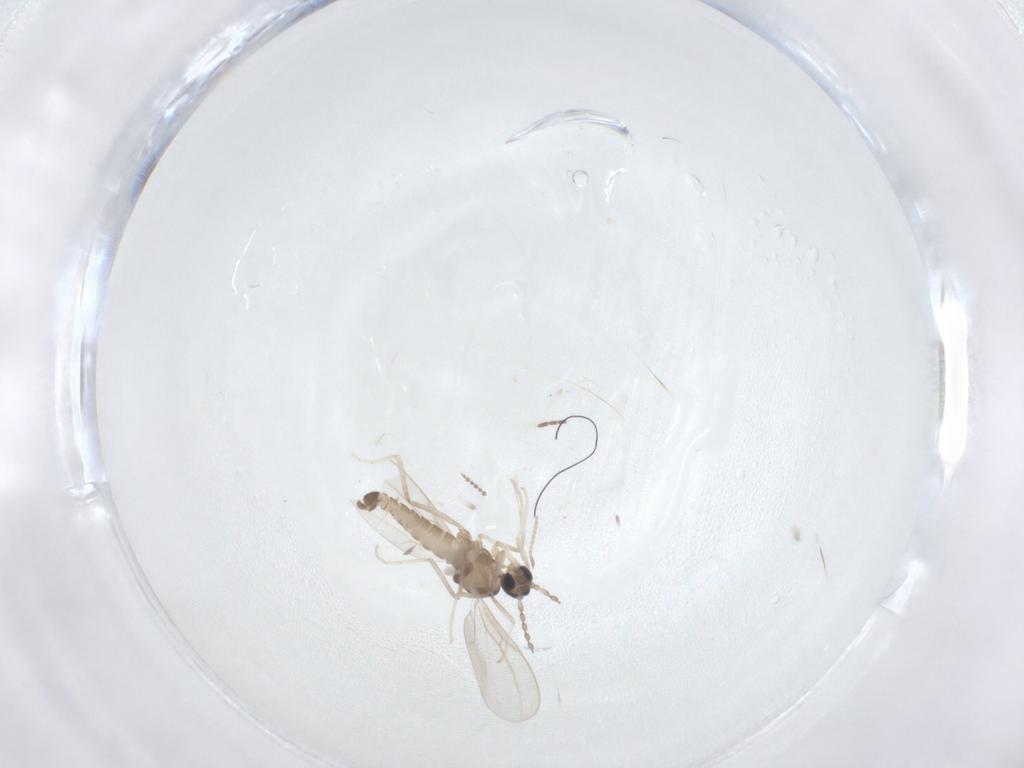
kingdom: Animalia
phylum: Arthropoda
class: Insecta
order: Diptera
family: Cecidomyiidae
